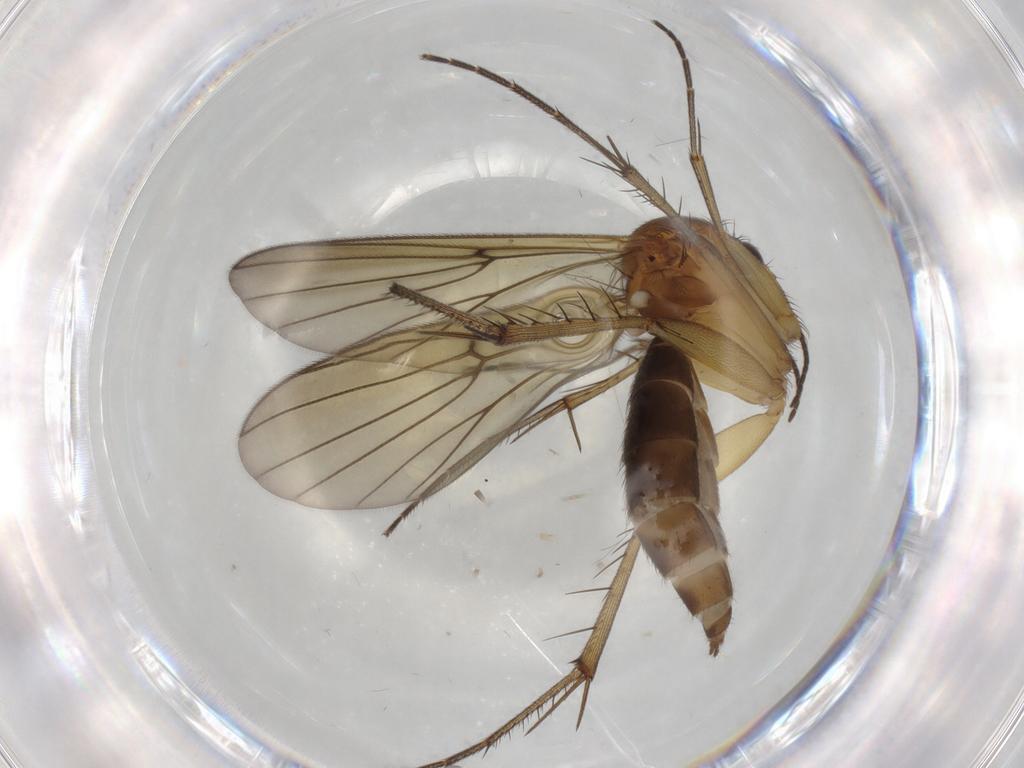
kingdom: Animalia
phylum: Arthropoda
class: Insecta
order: Diptera
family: Mycetophilidae
